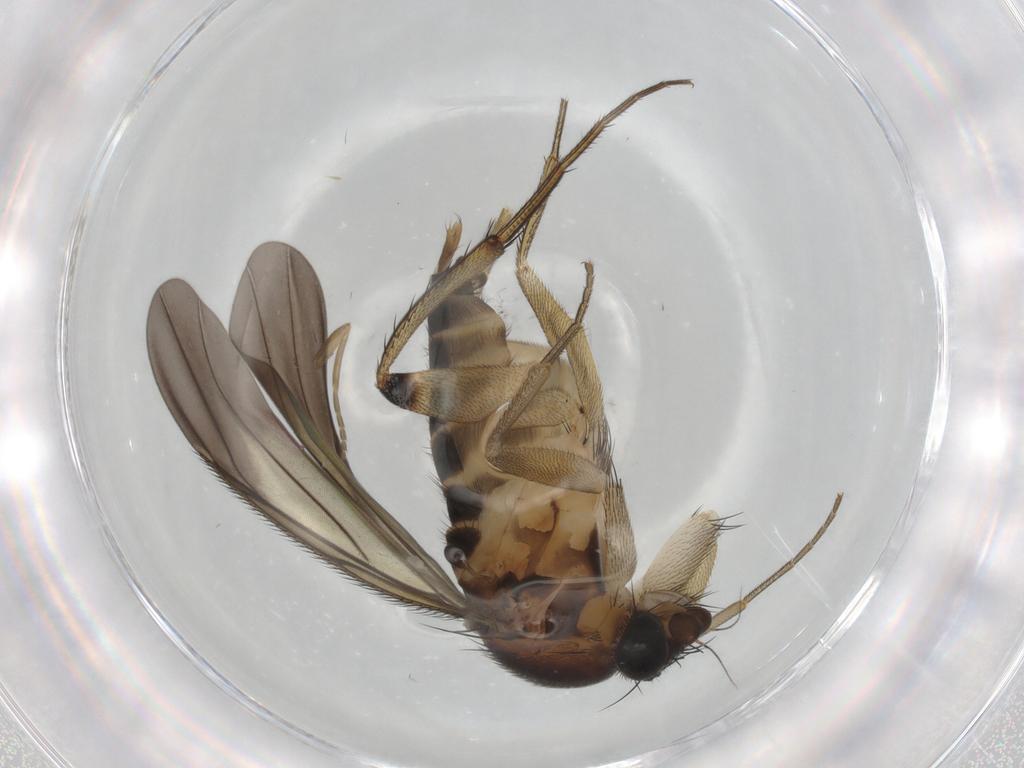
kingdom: Animalia
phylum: Arthropoda
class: Insecta
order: Diptera
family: Phoridae
